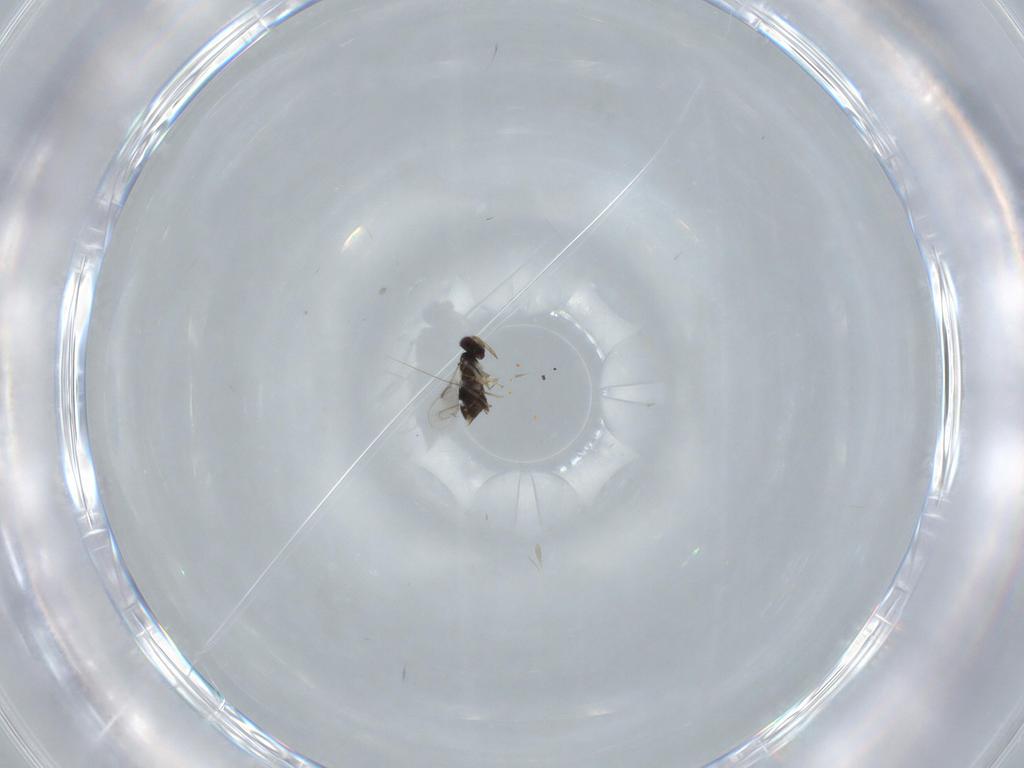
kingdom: Animalia
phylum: Arthropoda
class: Insecta
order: Hymenoptera
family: Aphelinidae
